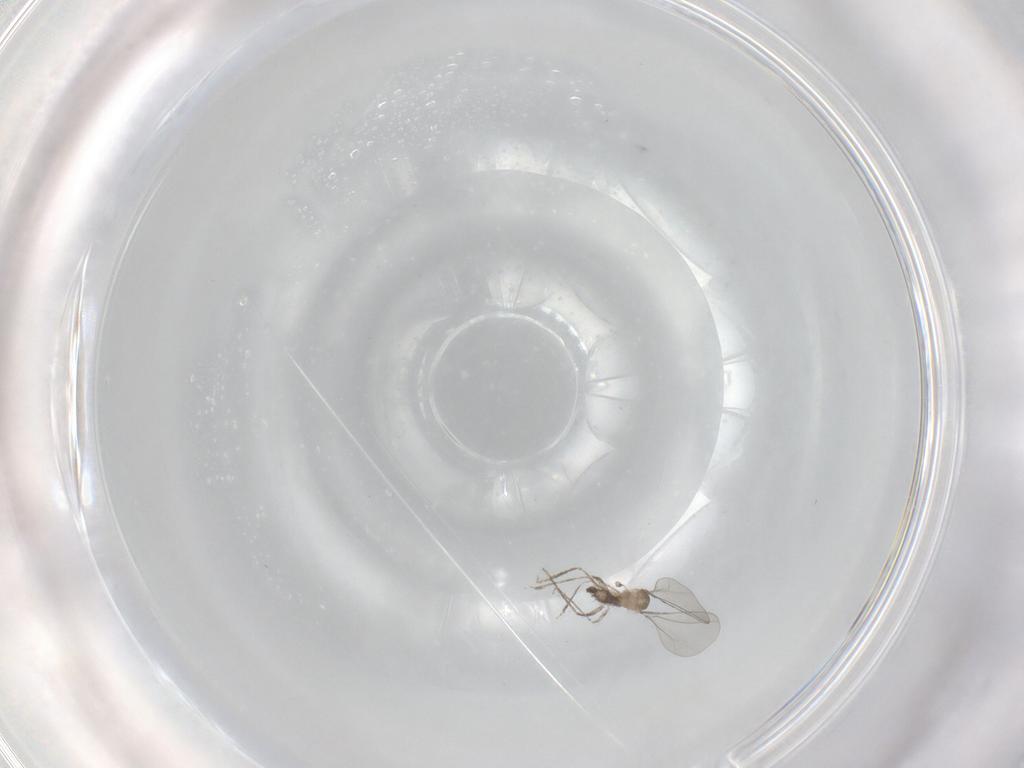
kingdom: Animalia
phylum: Arthropoda
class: Insecta
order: Diptera
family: Cecidomyiidae
